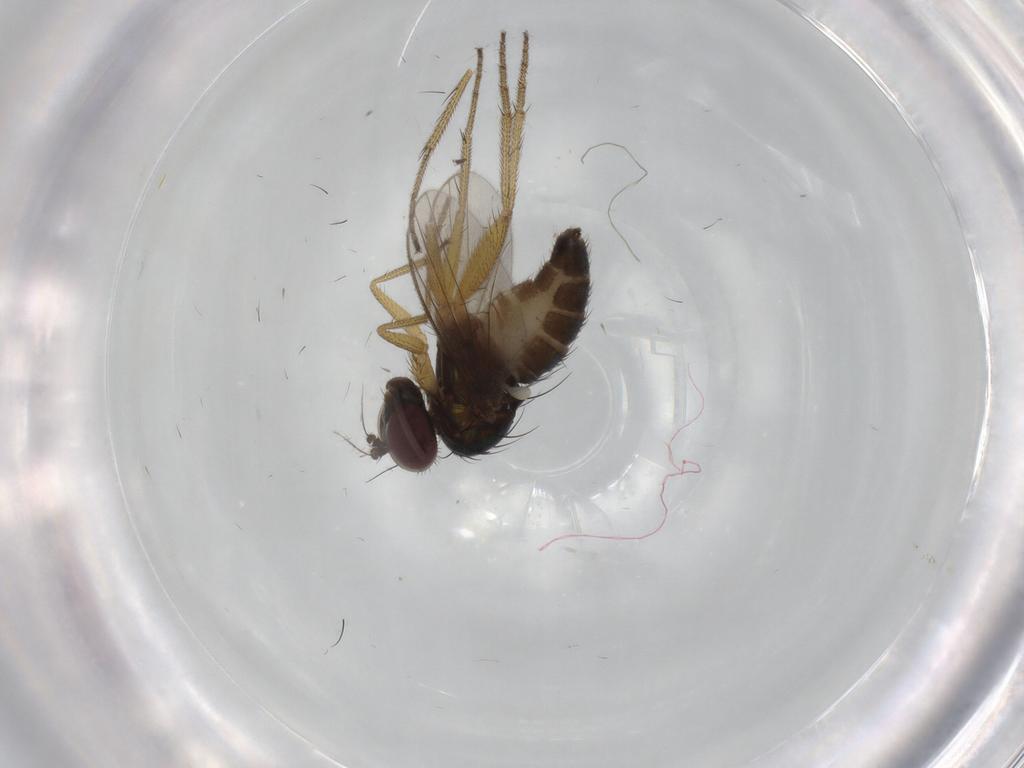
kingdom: Animalia
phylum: Arthropoda
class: Insecta
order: Diptera
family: Dolichopodidae
